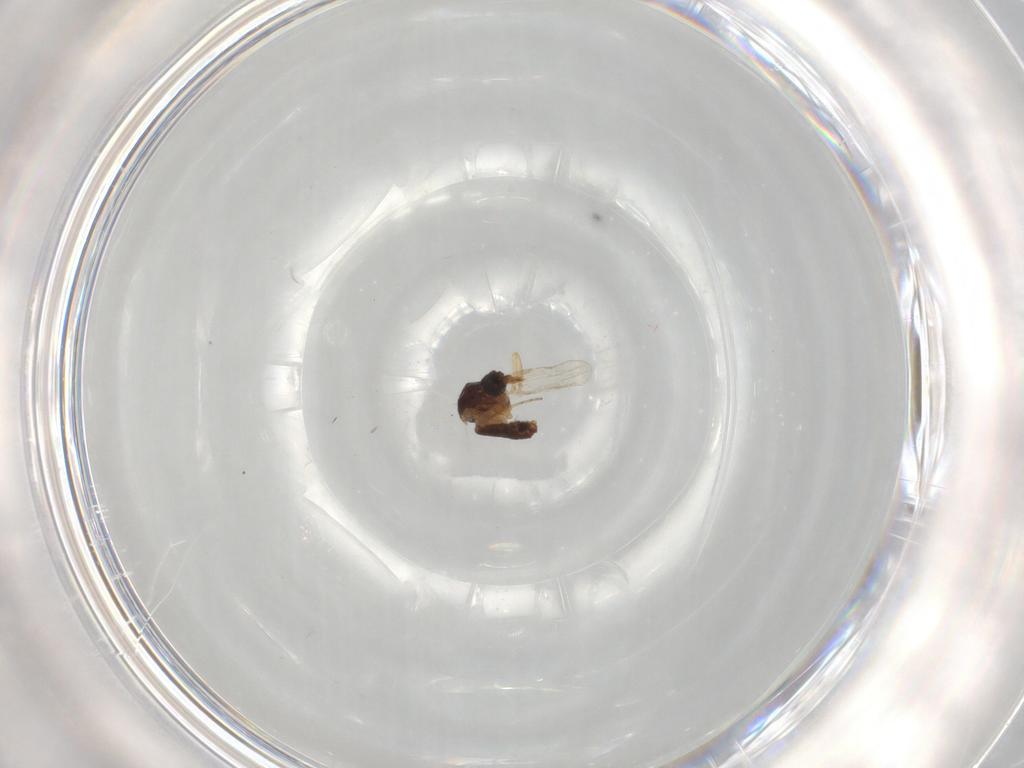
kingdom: Animalia
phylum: Arthropoda
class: Insecta
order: Diptera
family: Ceratopogonidae
